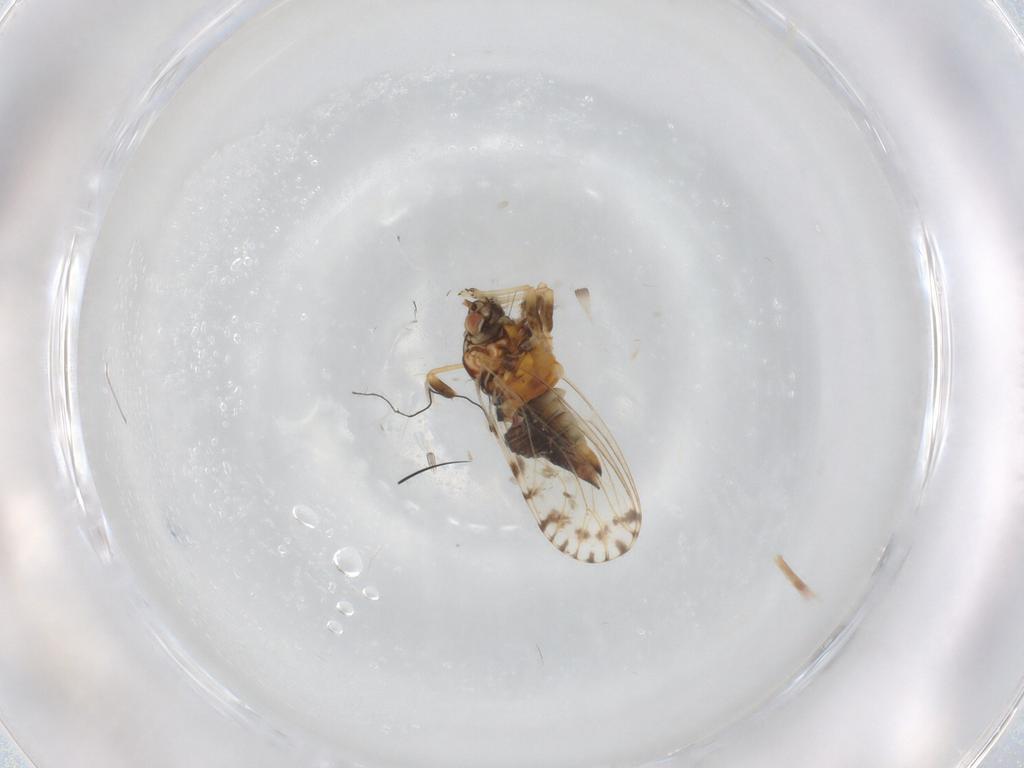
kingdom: Animalia
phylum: Arthropoda
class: Insecta
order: Hemiptera
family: Psyllidae
